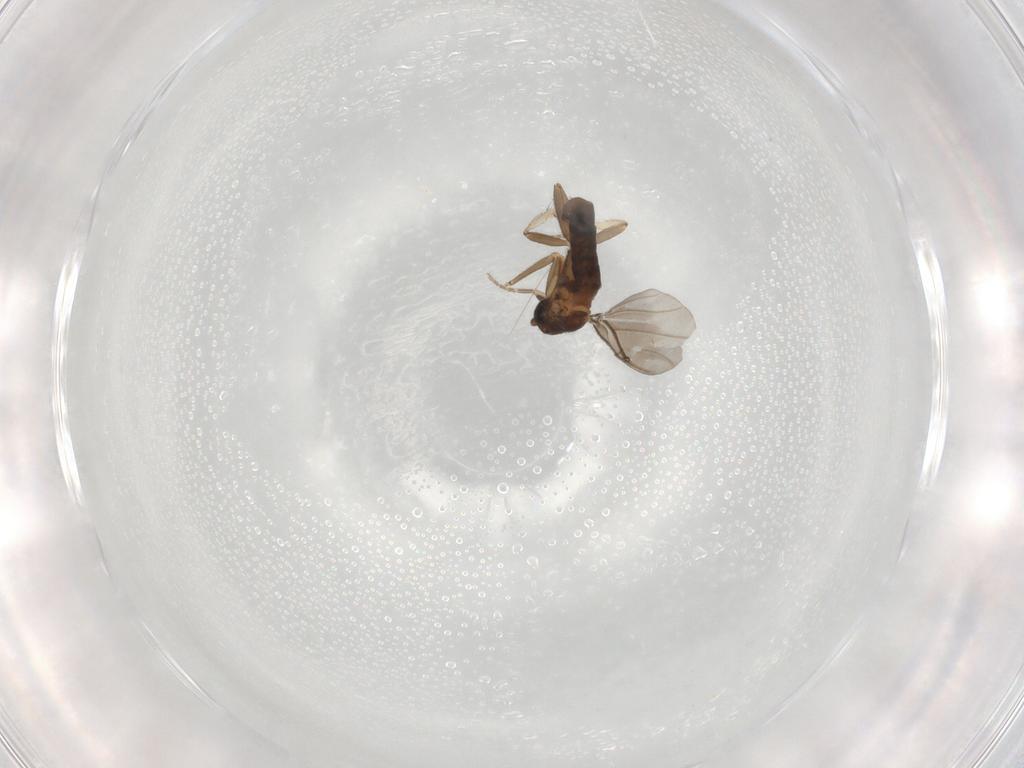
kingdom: Animalia
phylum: Arthropoda
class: Insecta
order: Diptera
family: Phoridae
